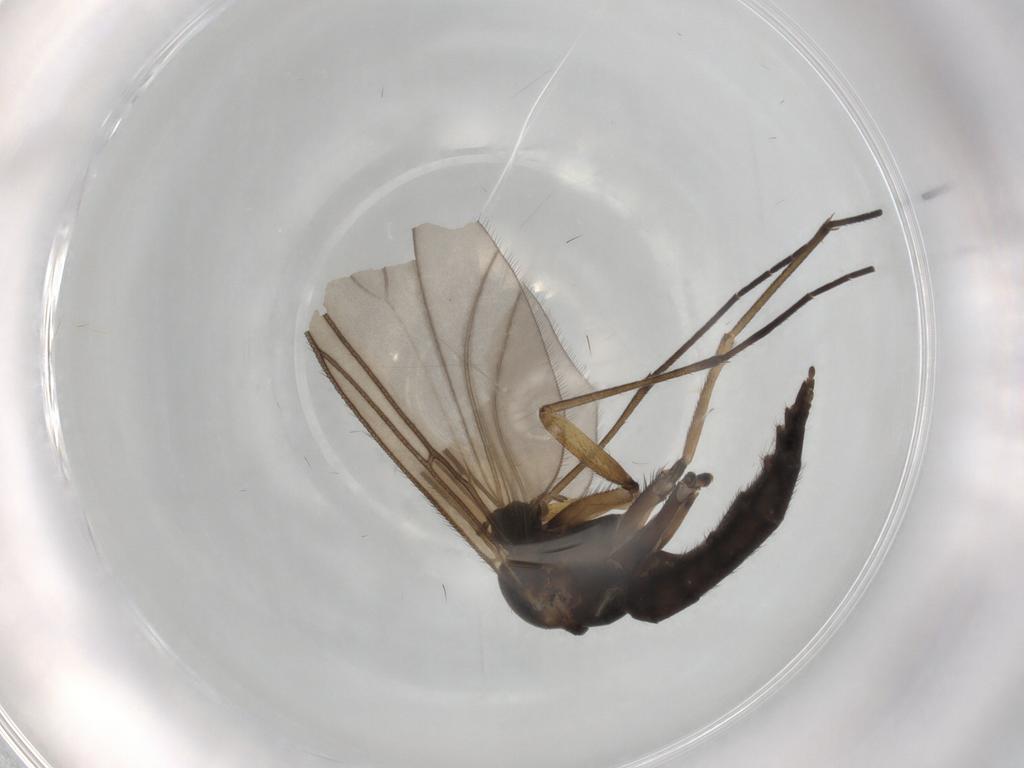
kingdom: Animalia
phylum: Arthropoda
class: Insecta
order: Diptera
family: Sciaridae
